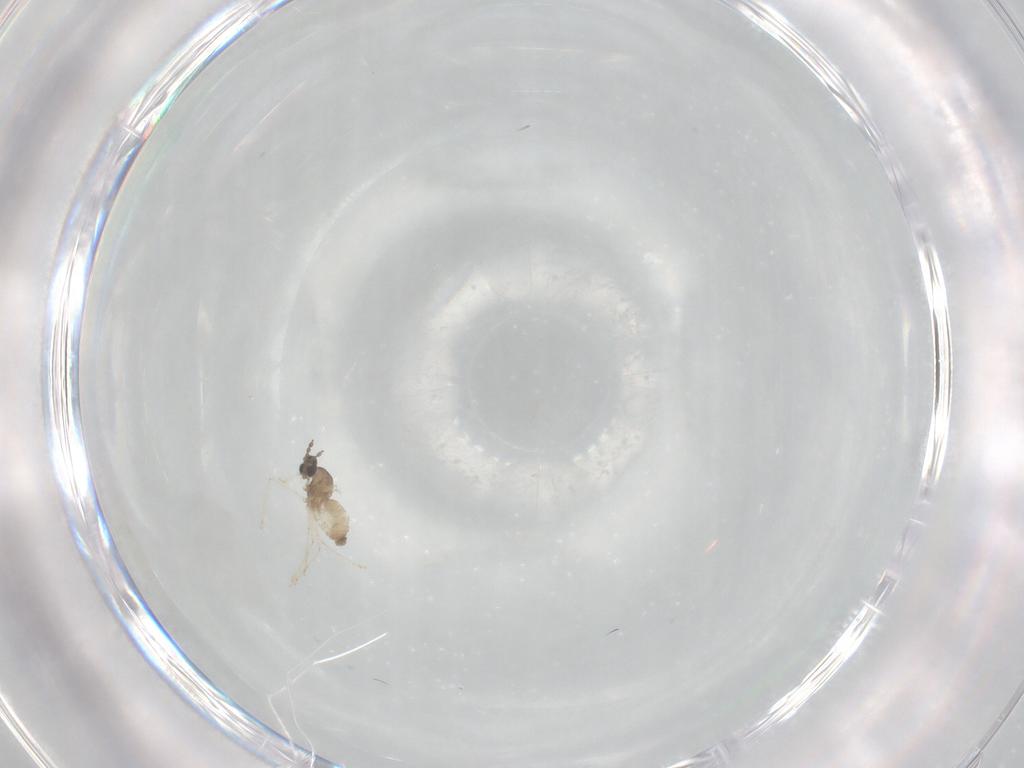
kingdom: Animalia
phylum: Arthropoda
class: Insecta
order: Diptera
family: Cecidomyiidae
